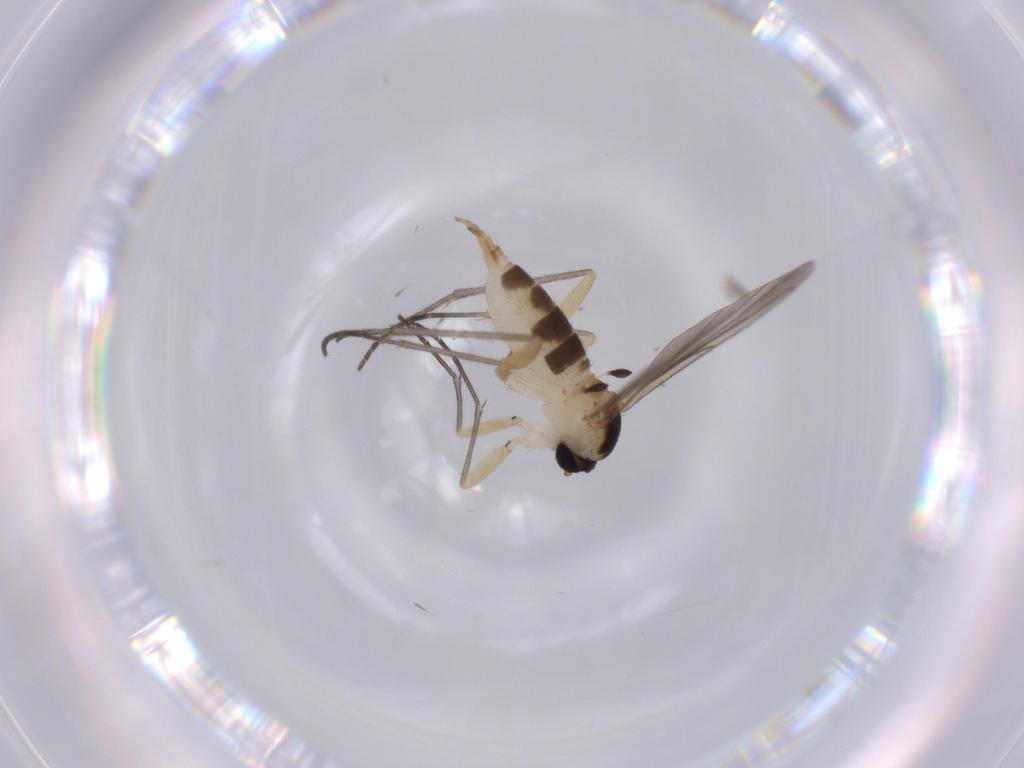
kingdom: Animalia
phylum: Arthropoda
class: Insecta
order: Diptera
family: Sciaridae
